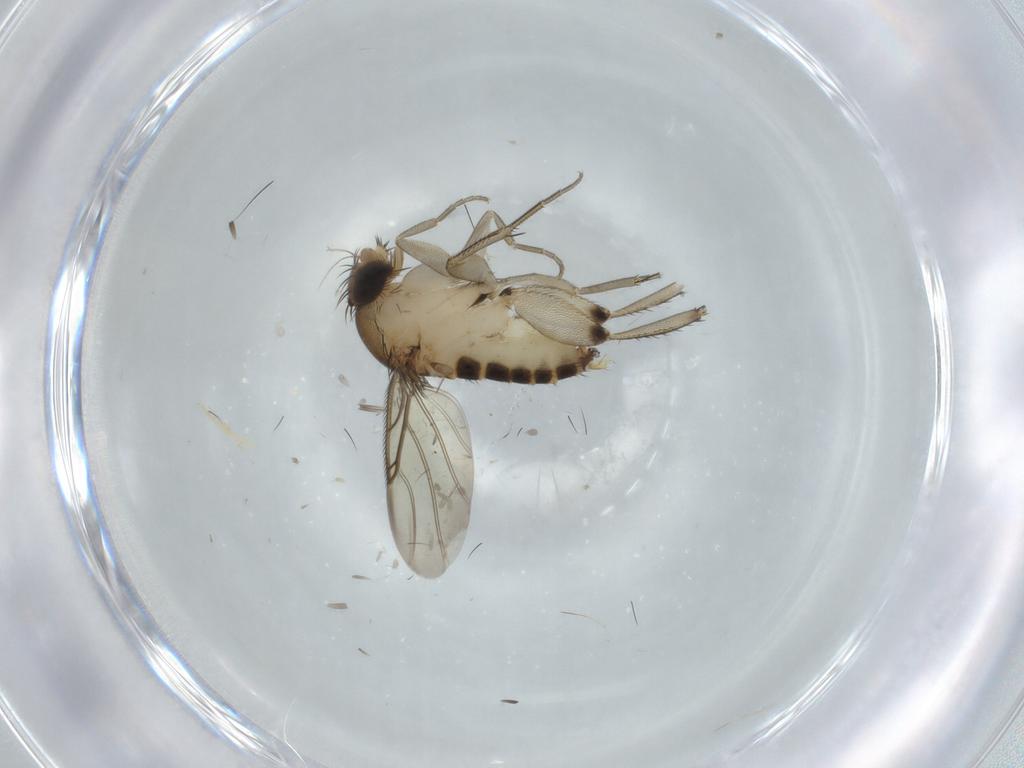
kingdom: Animalia
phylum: Arthropoda
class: Insecta
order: Diptera
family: Phoridae
